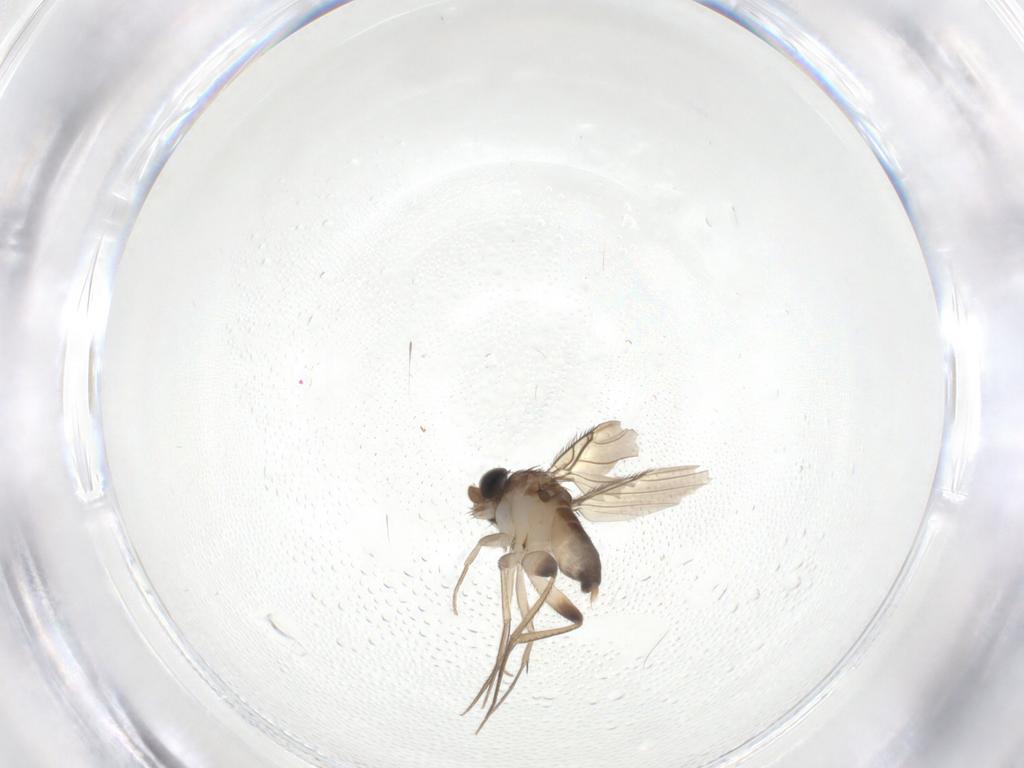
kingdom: Animalia
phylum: Arthropoda
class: Insecta
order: Diptera
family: Phoridae
